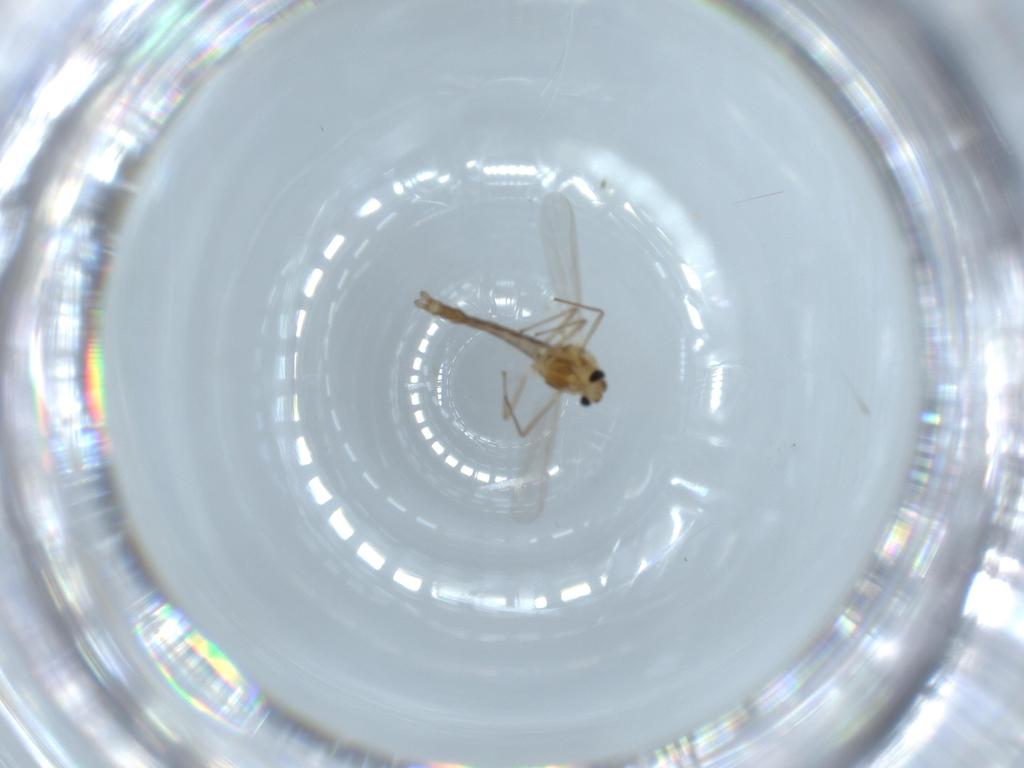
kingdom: Animalia
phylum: Arthropoda
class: Insecta
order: Diptera
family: Chironomidae
